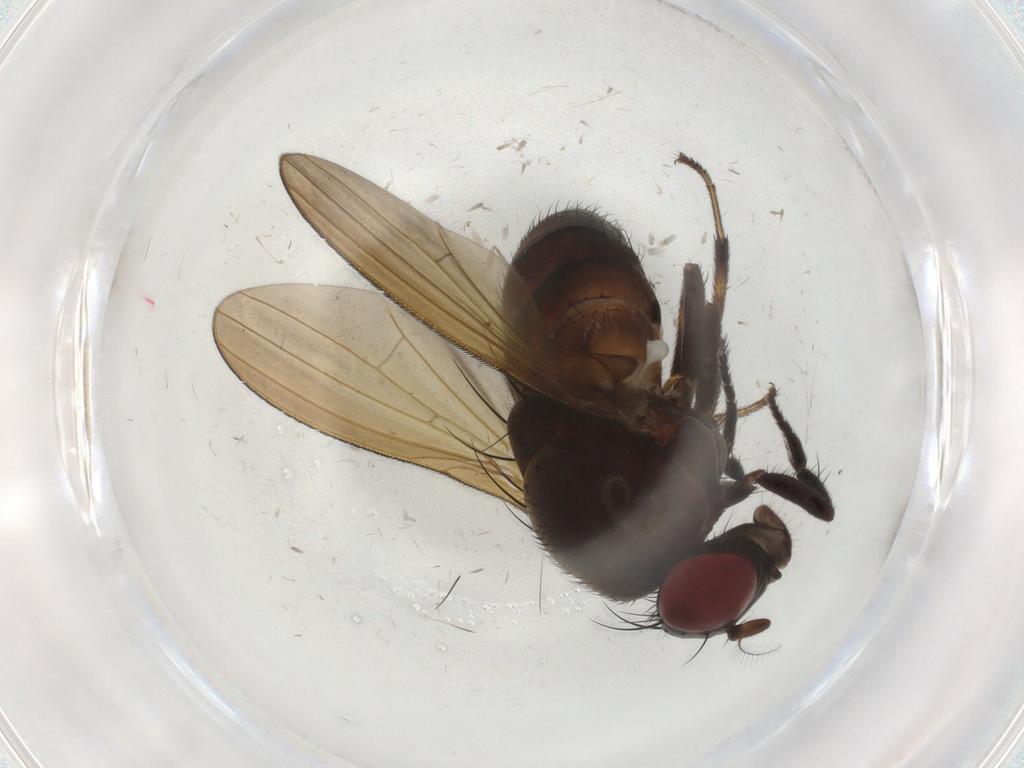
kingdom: Animalia
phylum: Arthropoda
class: Insecta
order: Diptera
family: Lauxaniidae
